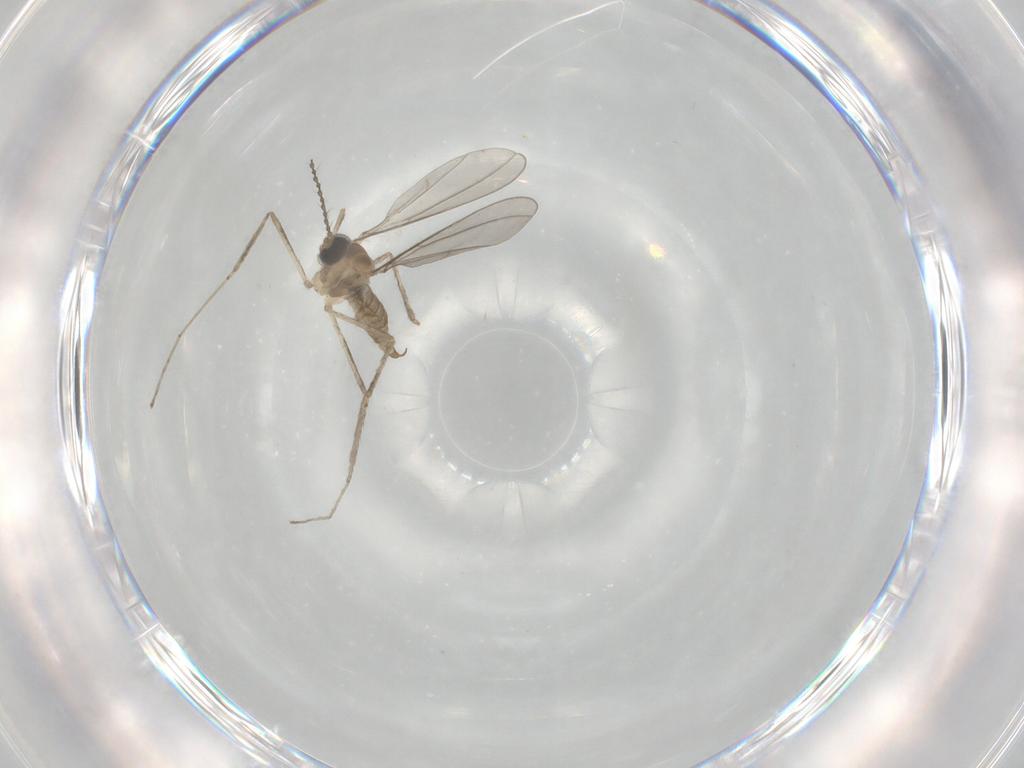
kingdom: Animalia
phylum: Arthropoda
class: Insecta
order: Diptera
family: Cecidomyiidae
